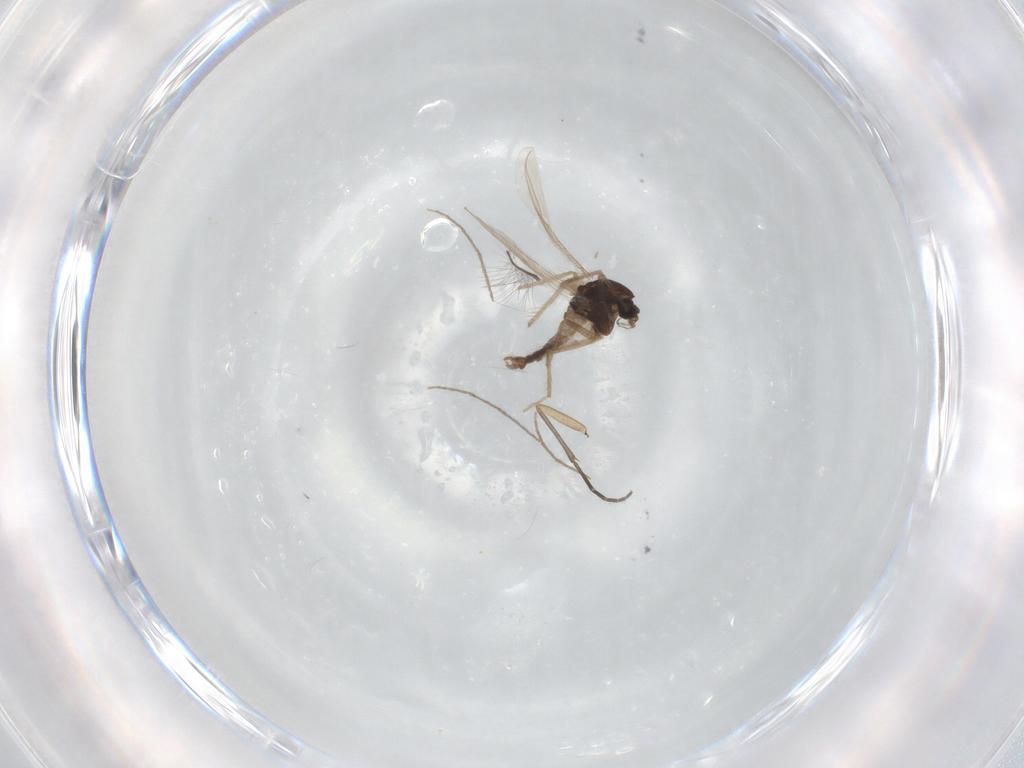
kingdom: Animalia
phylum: Arthropoda
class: Insecta
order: Diptera
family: Chironomidae
